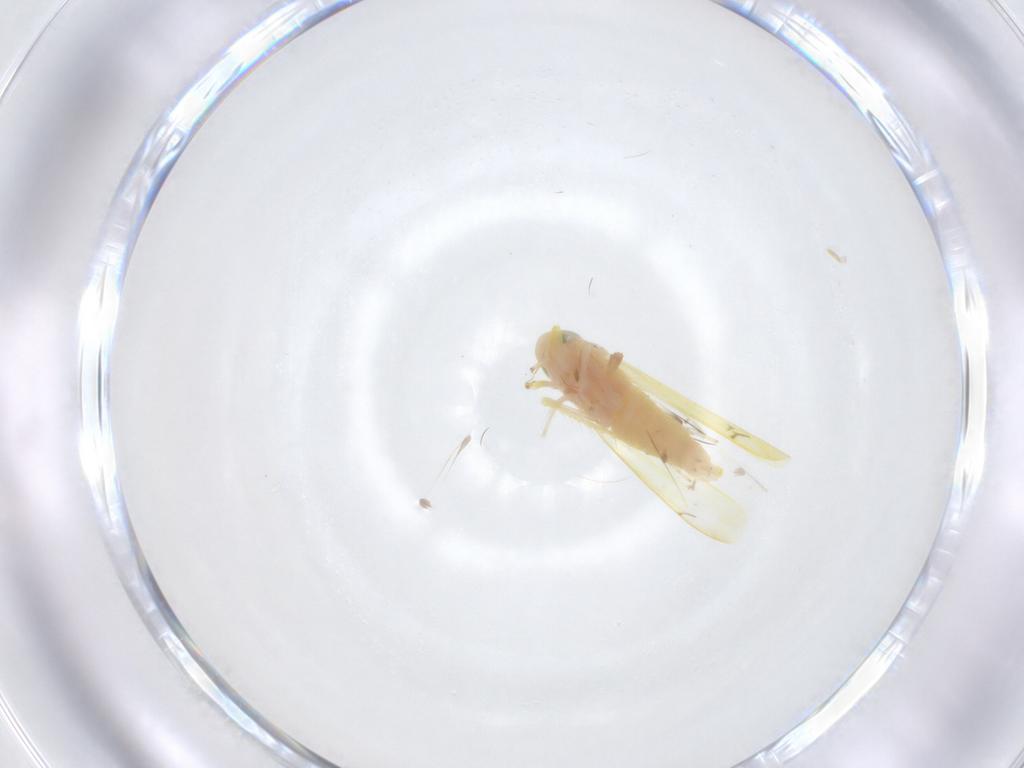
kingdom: Animalia
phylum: Arthropoda
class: Insecta
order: Hemiptera
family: Cicadellidae
